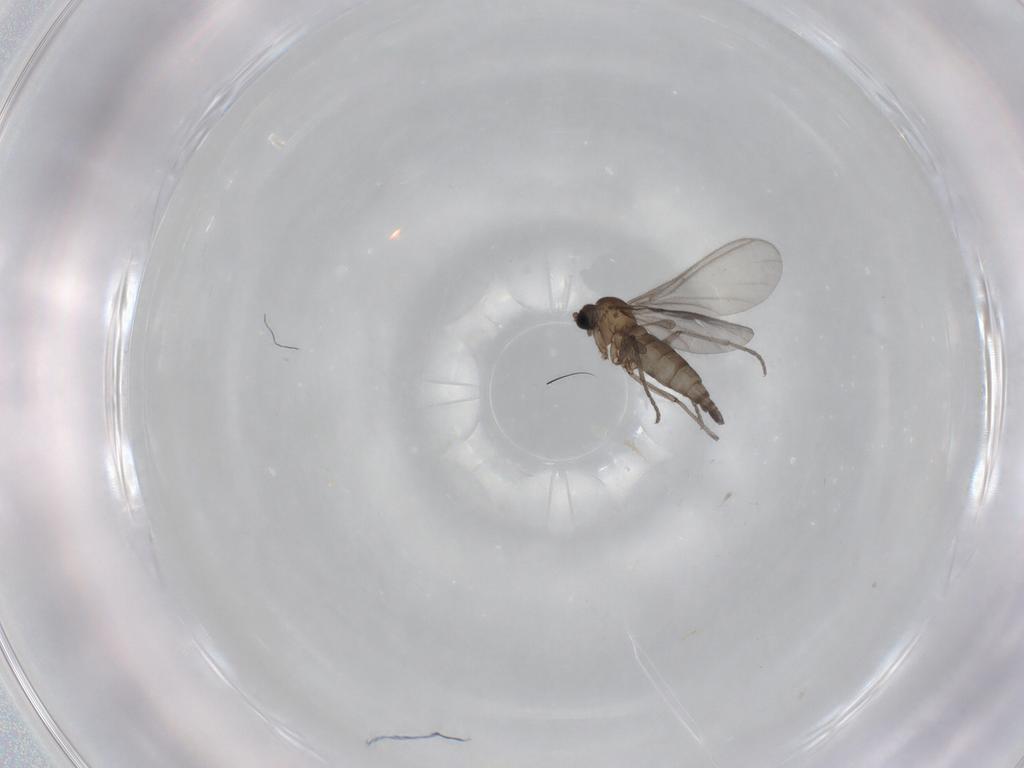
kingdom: Animalia
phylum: Arthropoda
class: Insecta
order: Diptera
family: Sciaridae
